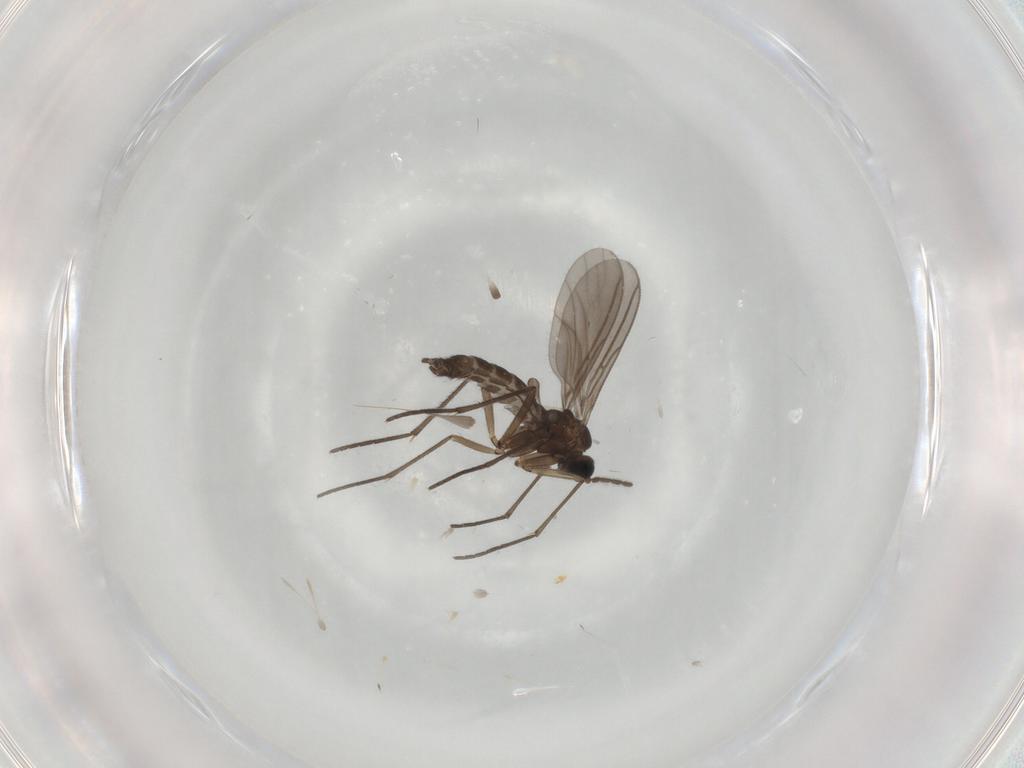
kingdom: Animalia
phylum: Arthropoda
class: Insecta
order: Diptera
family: Sciaridae
